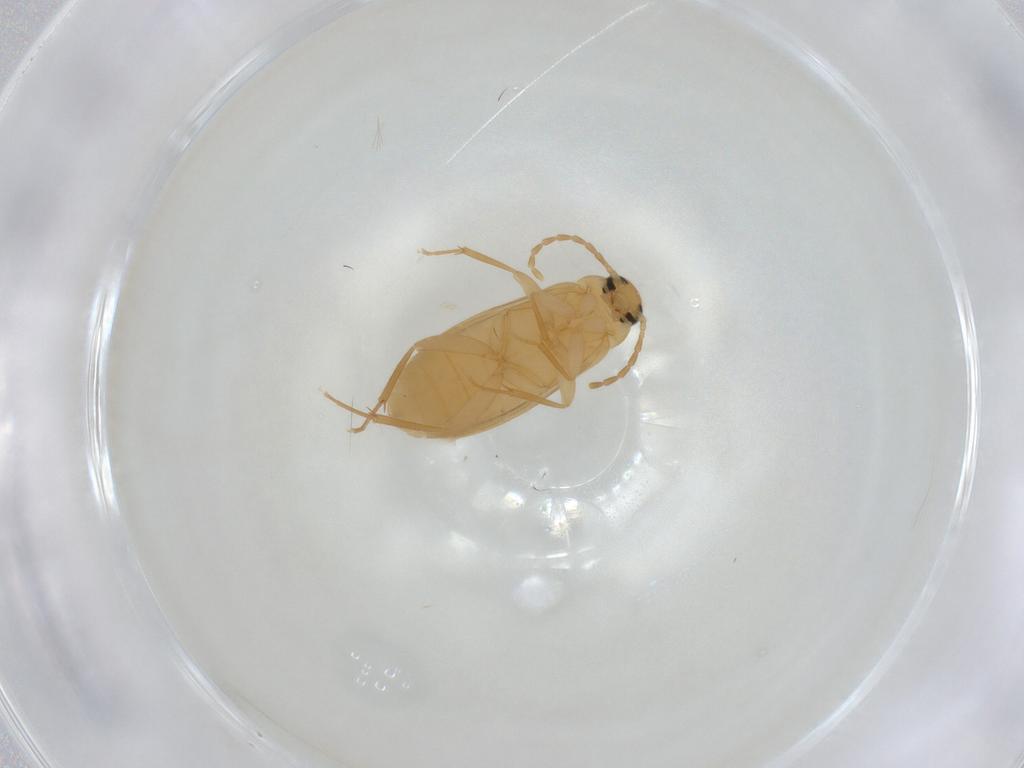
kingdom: Animalia
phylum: Arthropoda
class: Insecta
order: Coleoptera
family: Scraptiidae
